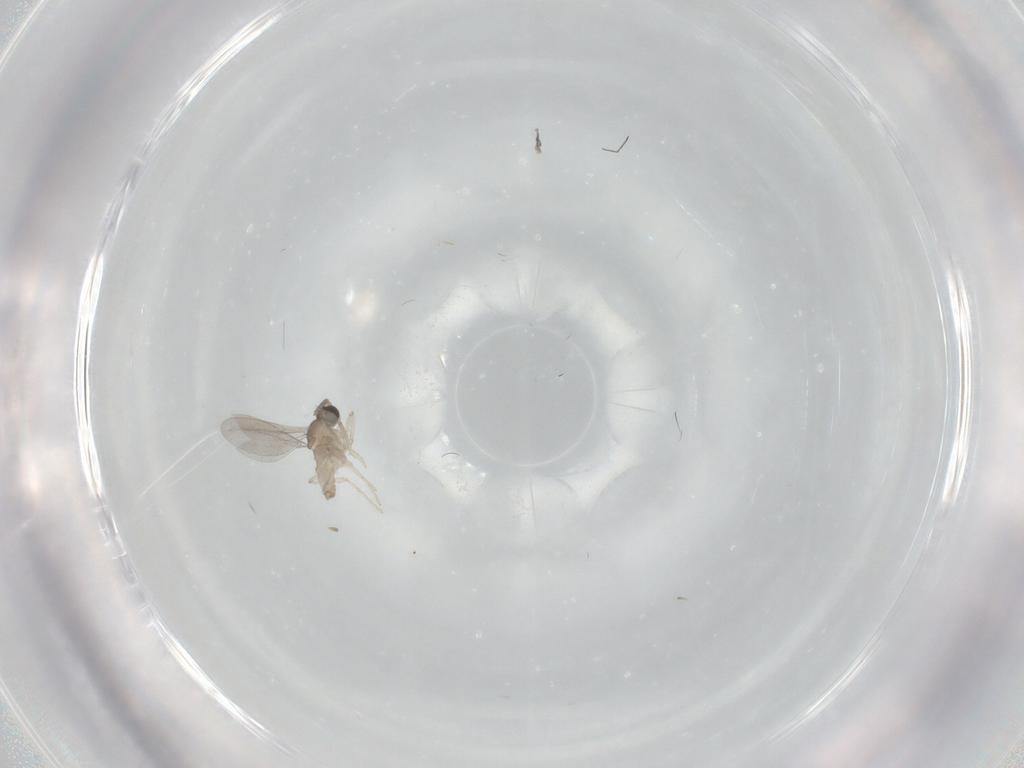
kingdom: Animalia
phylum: Arthropoda
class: Insecta
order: Diptera
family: Cecidomyiidae
